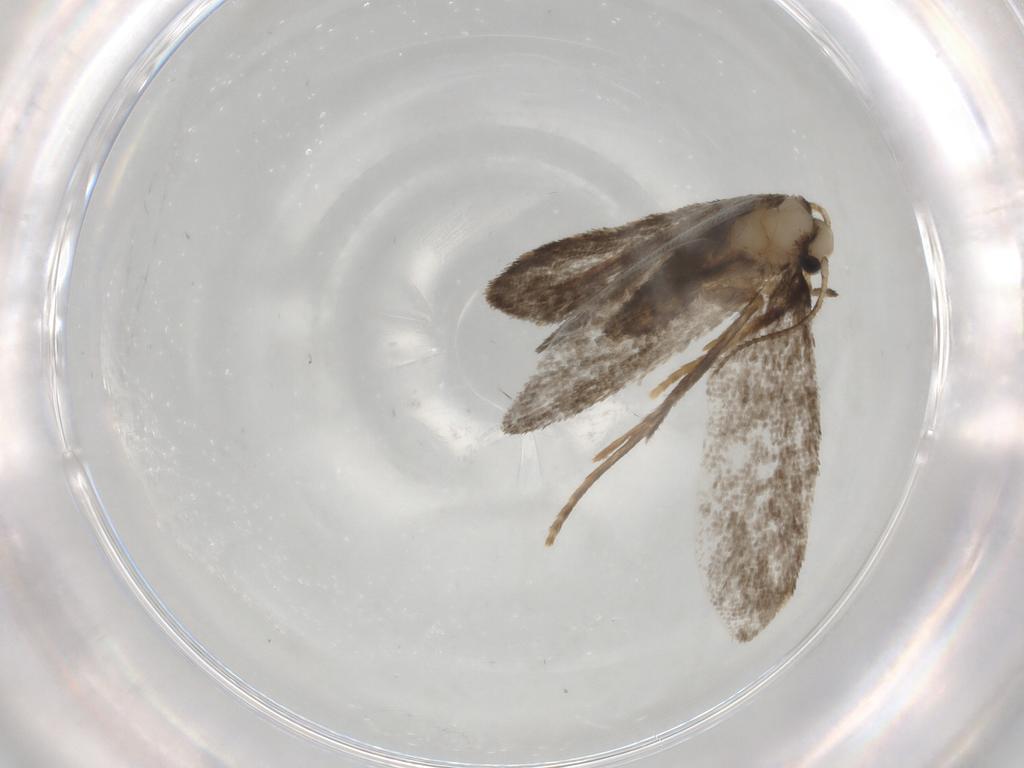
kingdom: Animalia
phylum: Arthropoda
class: Insecta
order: Lepidoptera
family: Psychidae
